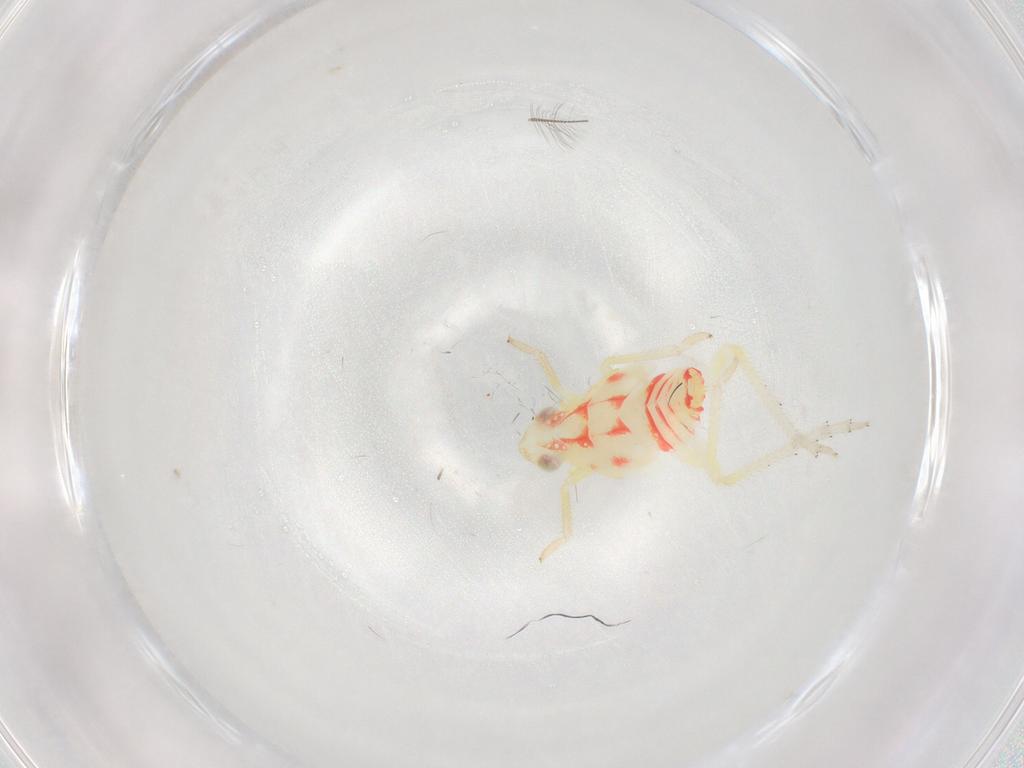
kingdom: Animalia
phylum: Arthropoda
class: Insecta
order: Hemiptera
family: Tropiduchidae
